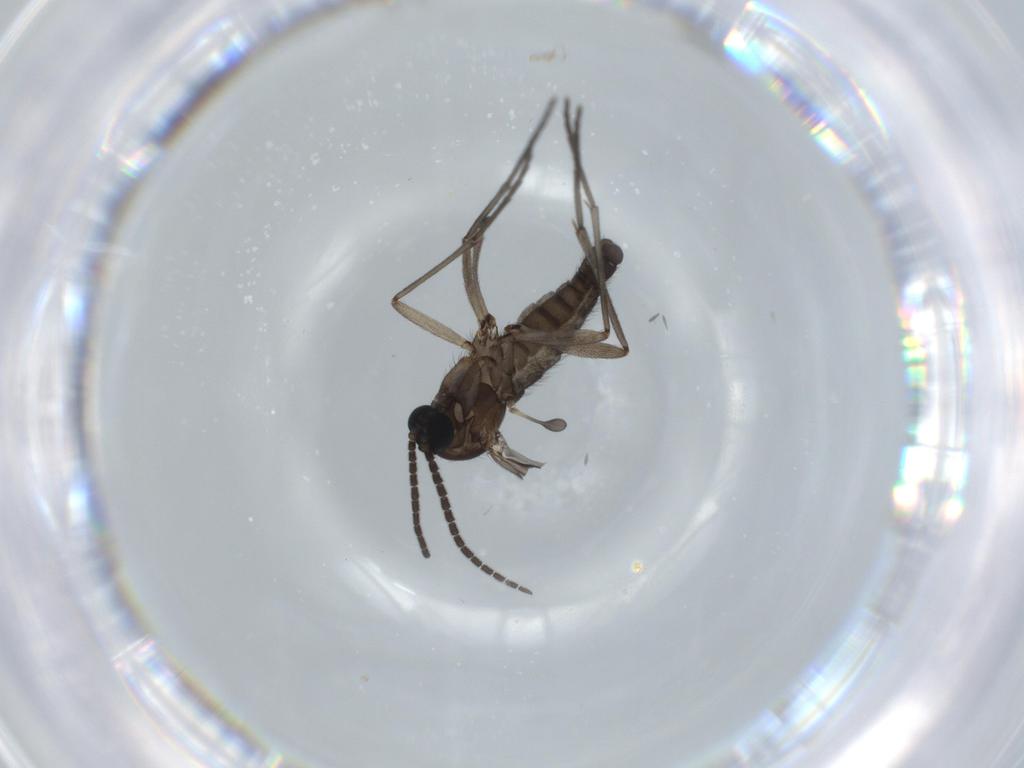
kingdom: Animalia
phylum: Arthropoda
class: Insecta
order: Diptera
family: Sciaridae
